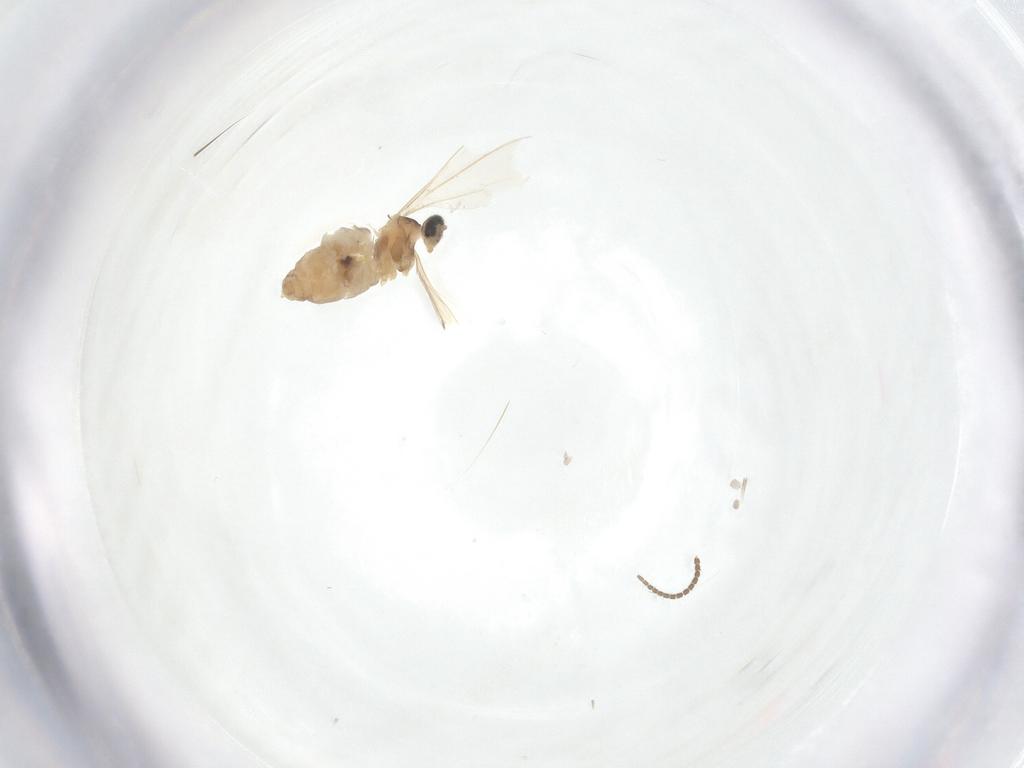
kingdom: Animalia
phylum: Arthropoda
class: Insecta
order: Diptera
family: Cecidomyiidae
